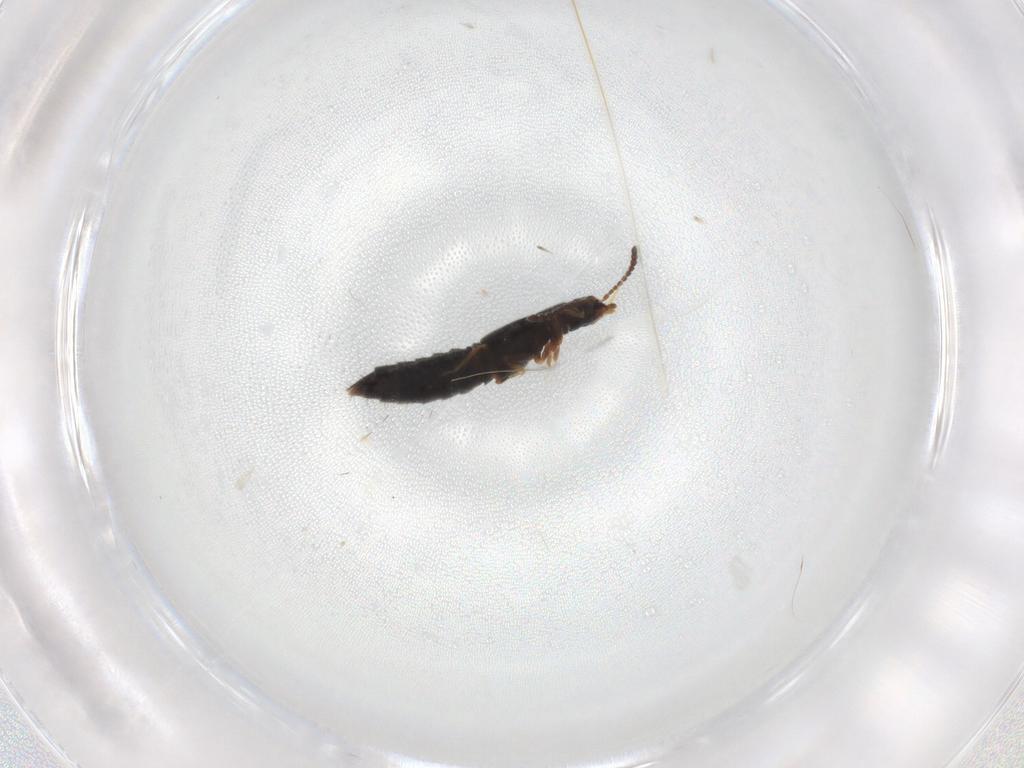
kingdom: Animalia
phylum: Arthropoda
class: Insecta
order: Coleoptera
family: Staphylinidae
